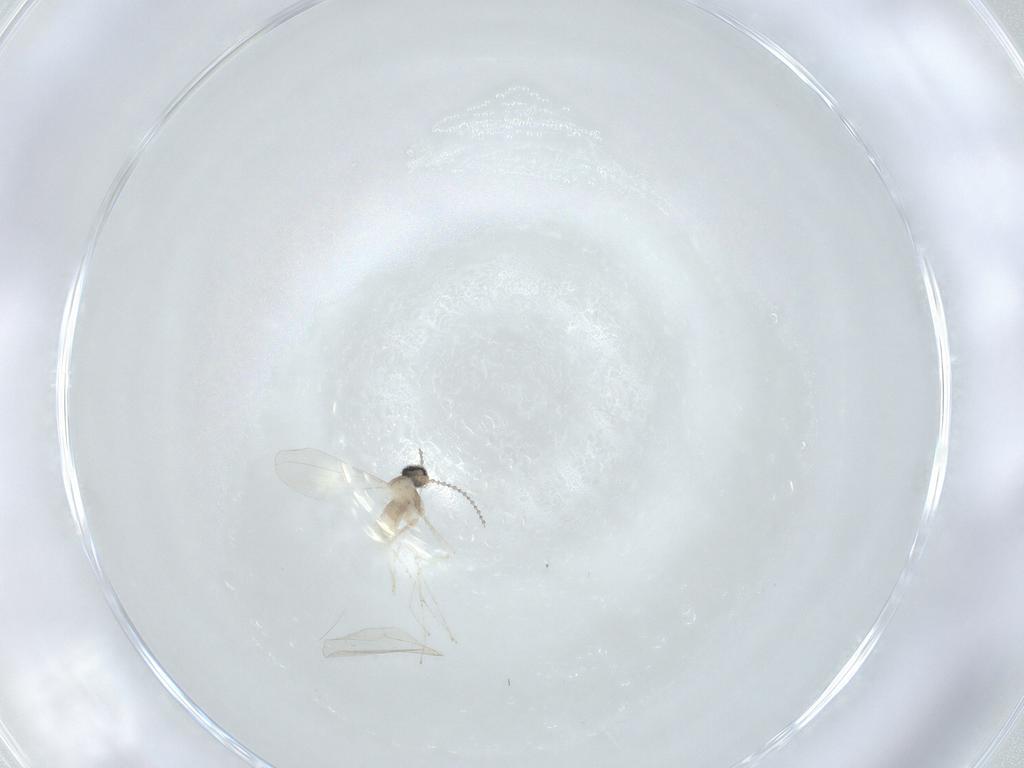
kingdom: Animalia
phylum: Arthropoda
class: Insecta
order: Diptera
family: Cecidomyiidae
